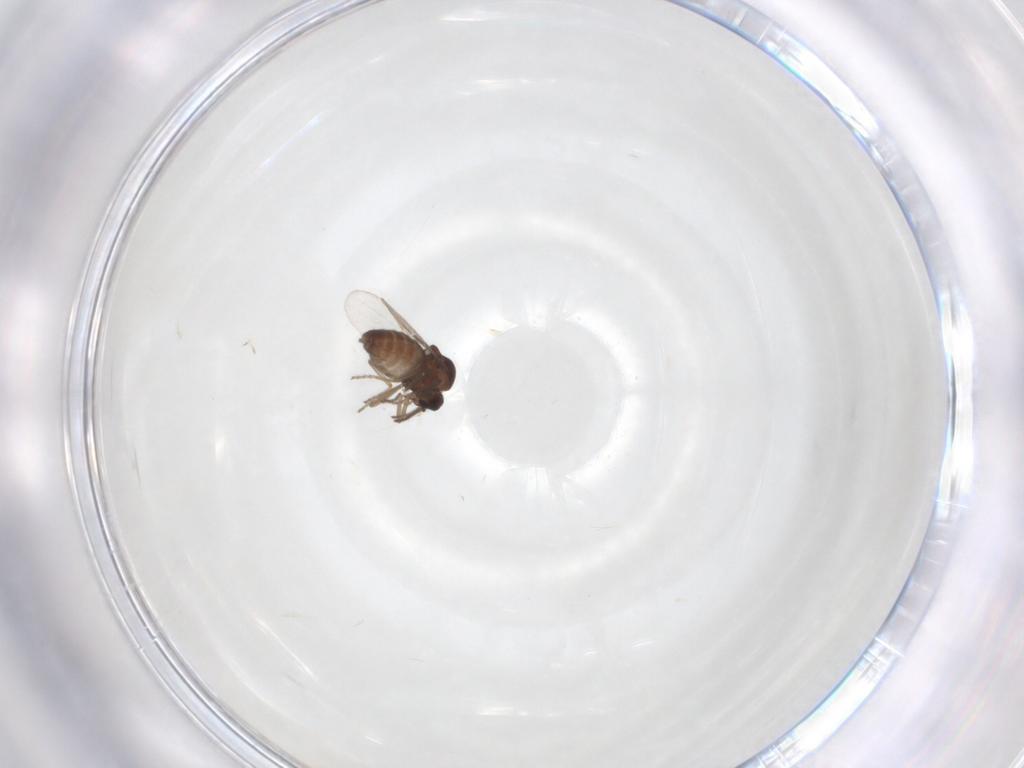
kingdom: Animalia
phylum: Arthropoda
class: Insecta
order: Diptera
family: Ceratopogonidae
